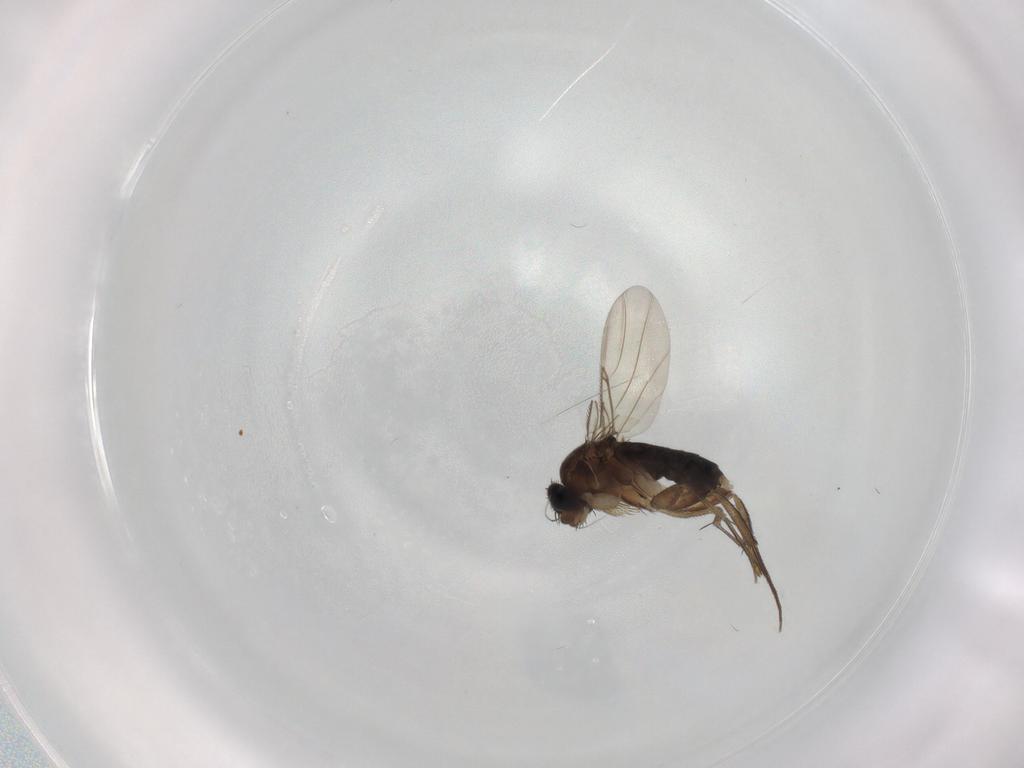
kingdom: Animalia
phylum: Arthropoda
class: Insecta
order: Diptera
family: Phoridae
